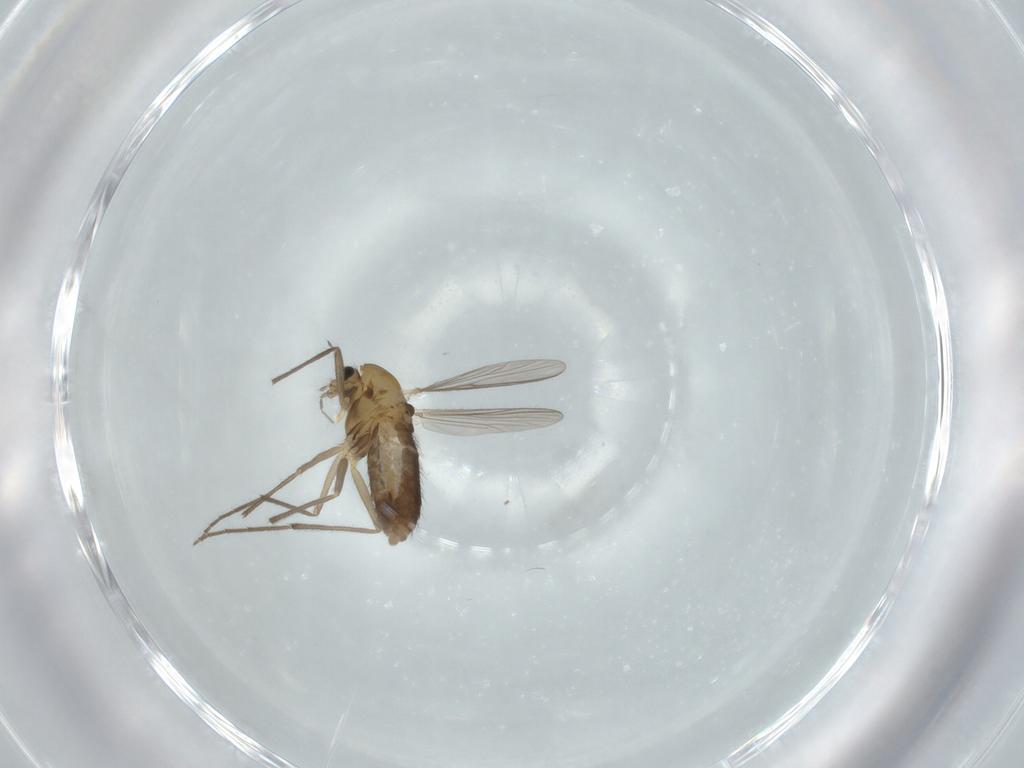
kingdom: Animalia
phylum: Arthropoda
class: Insecta
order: Diptera
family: Chironomidae
